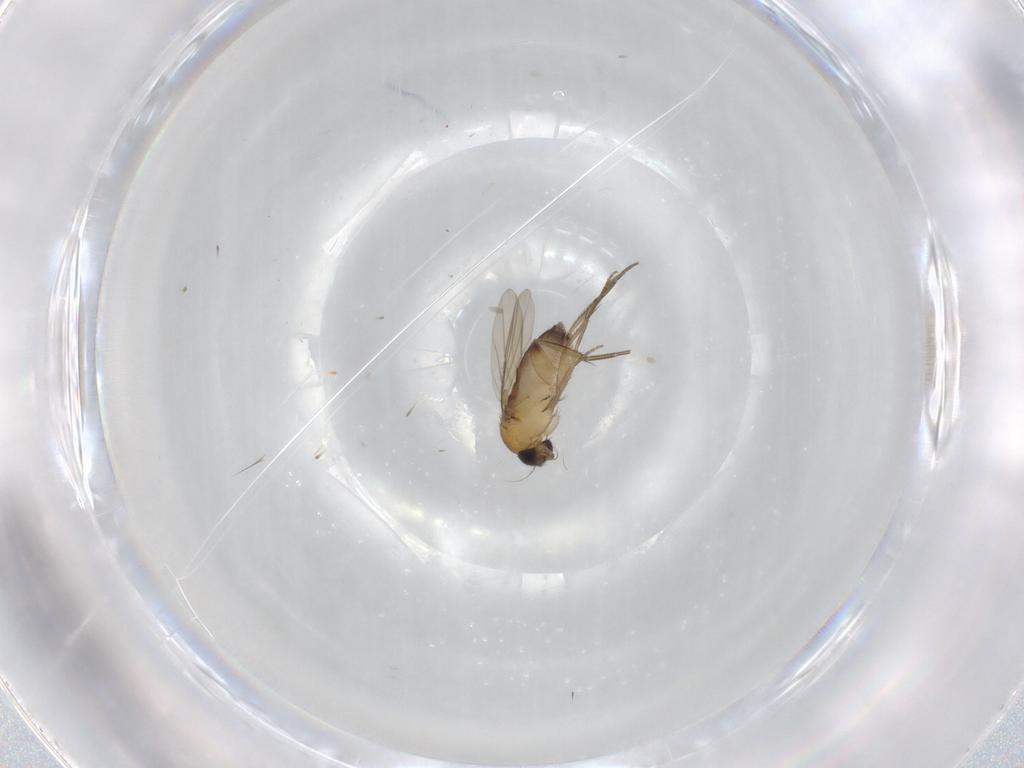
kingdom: Animalia
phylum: Arthropoda
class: Insecta
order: Diptera
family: Phoridae
